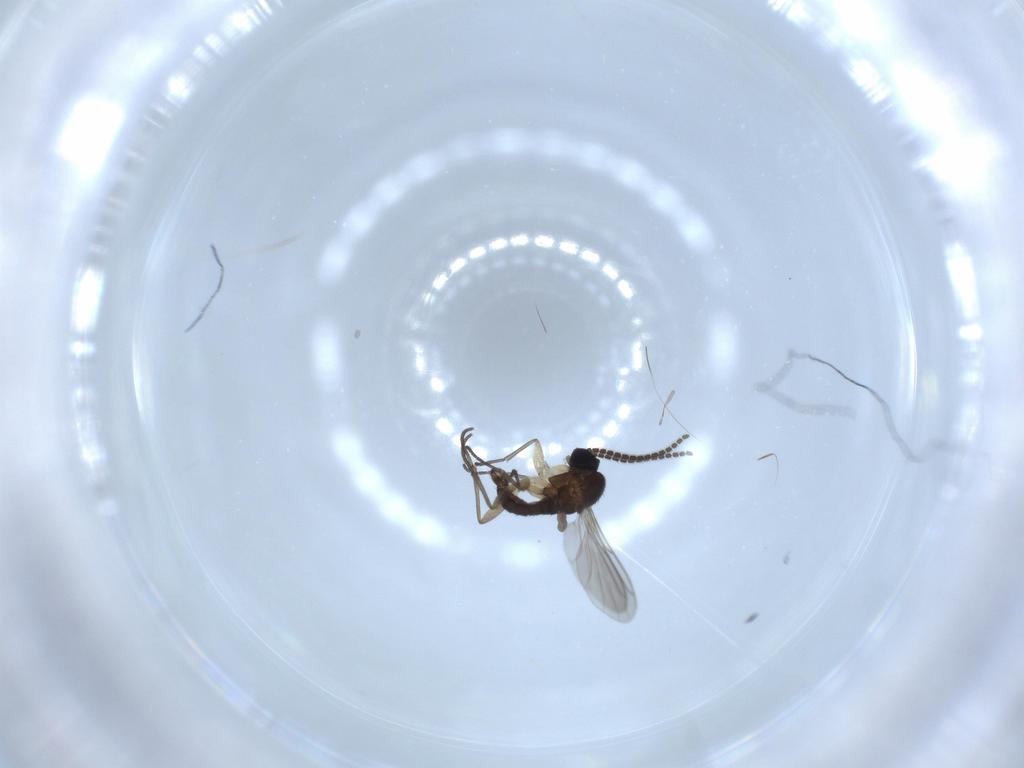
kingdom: Animalia
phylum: Arthropoda
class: Insecta
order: Diptera
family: Sciaridae
